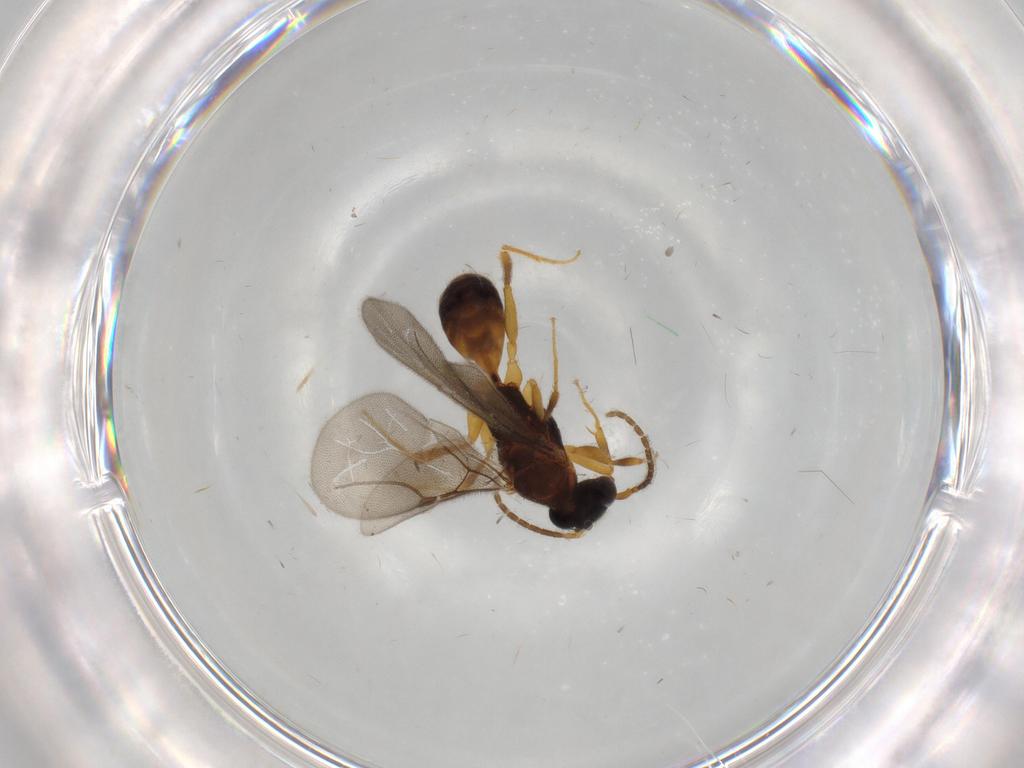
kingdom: Animalia
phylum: Arthropoda
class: Insecta
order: Hymenoptera
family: Bethylidae
